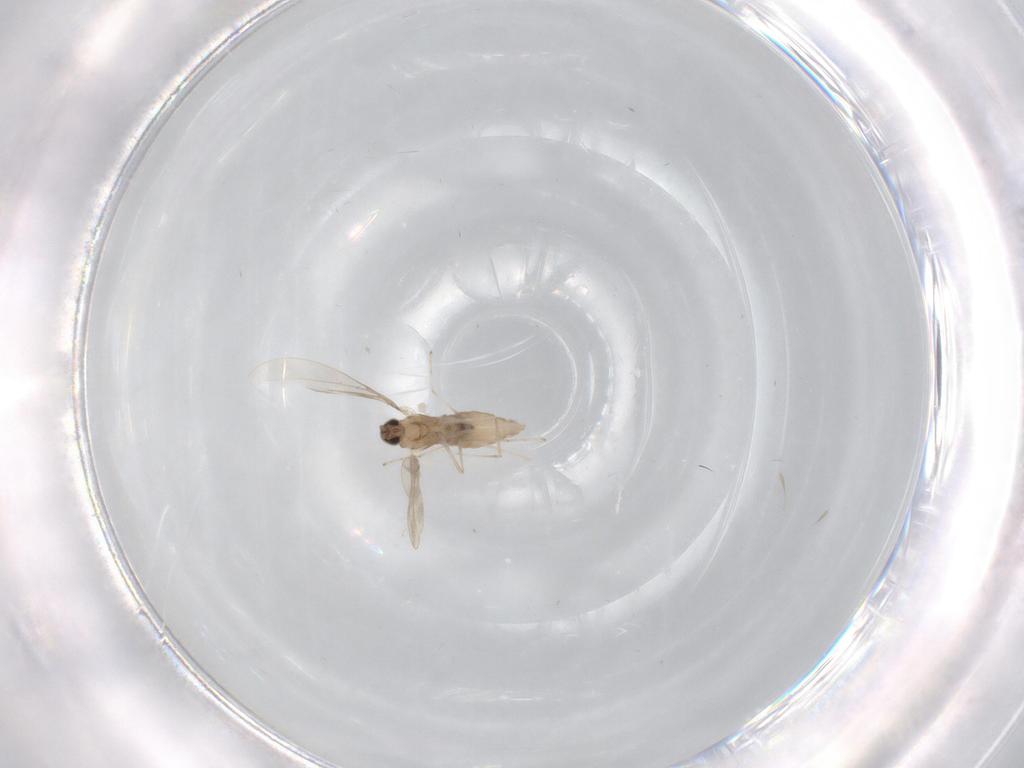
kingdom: Animalia
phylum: Arthropoda
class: Insecta
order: Diptera
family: Cecidomyiidae
